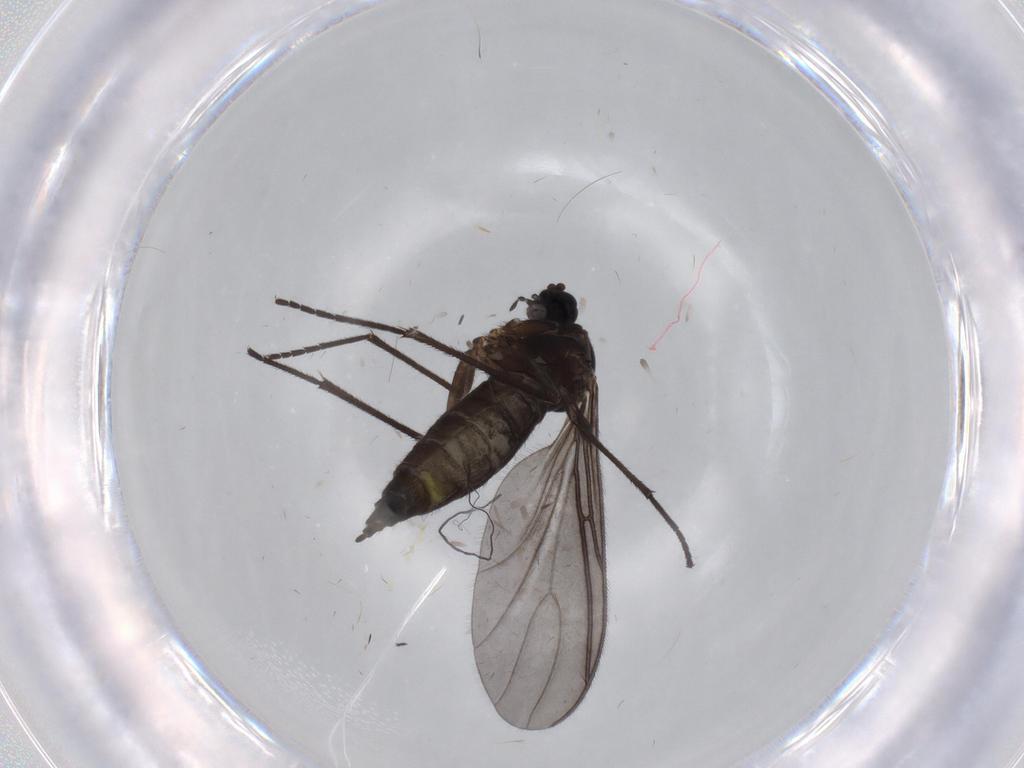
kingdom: Animalia
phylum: Arthropoda
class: Insecta
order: Diptera
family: Sciaridae
